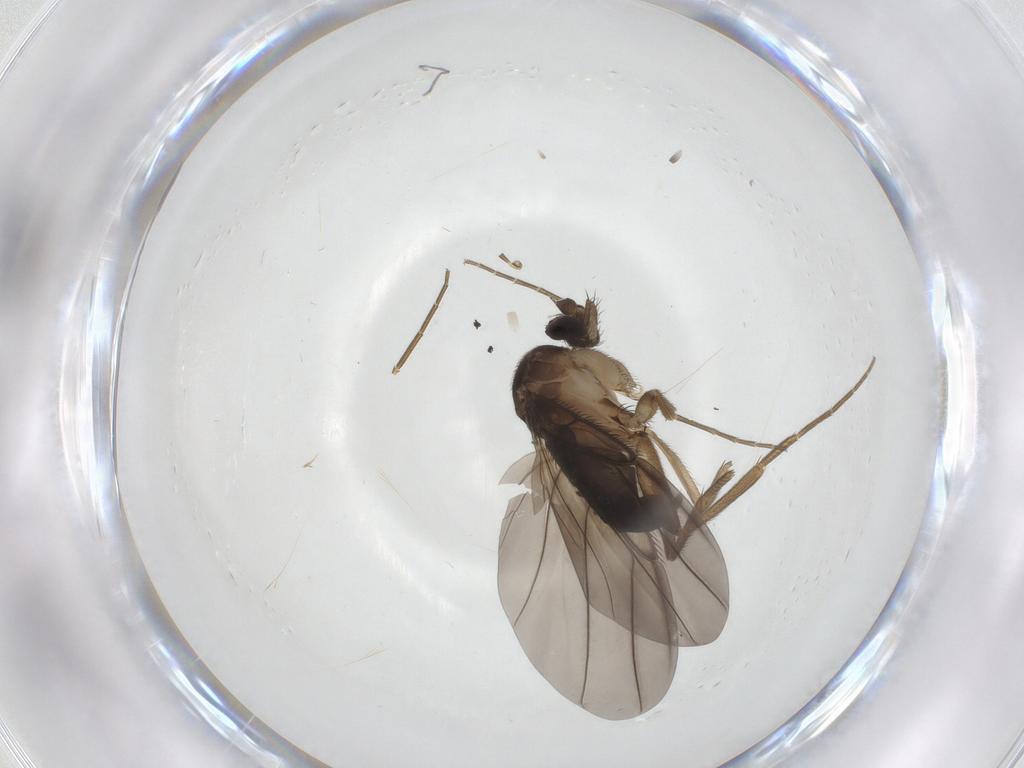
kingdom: Animalia
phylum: Arthropoda
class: Insecta
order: Diptera
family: Phoridae
